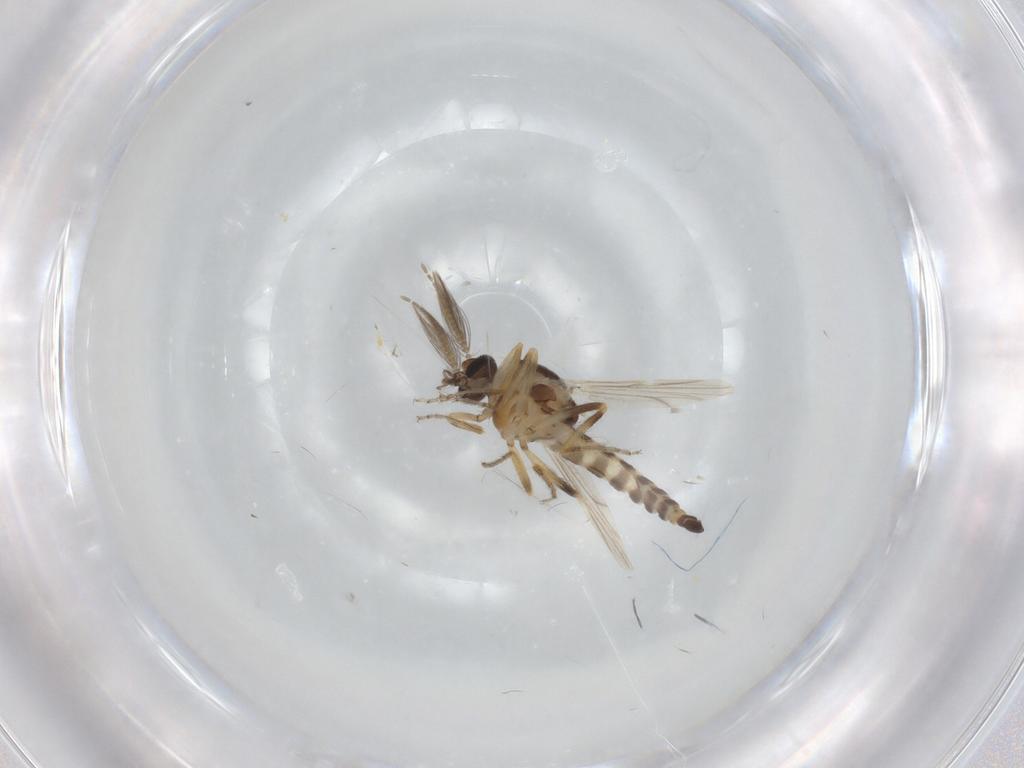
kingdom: Animalia
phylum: Arthropoda
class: Insecta
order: Diptera
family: Ceratopogonidae
